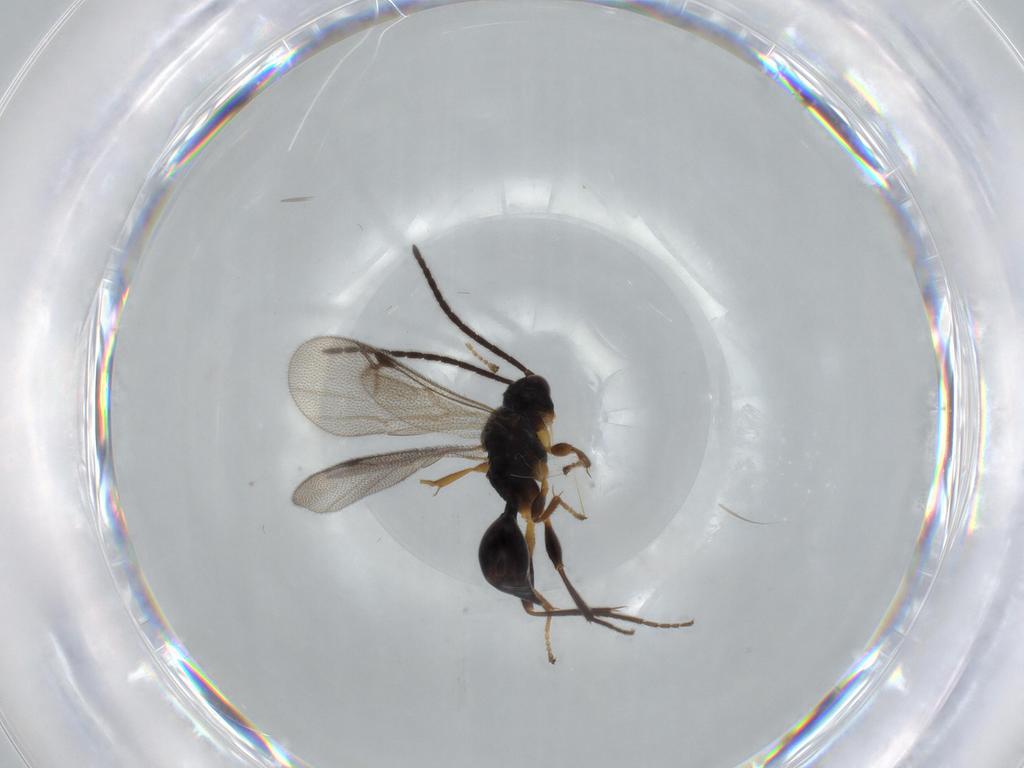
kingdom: Animalia
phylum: Arthropoda
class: Insecta
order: Hymenoptera
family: Proctotrupidae
